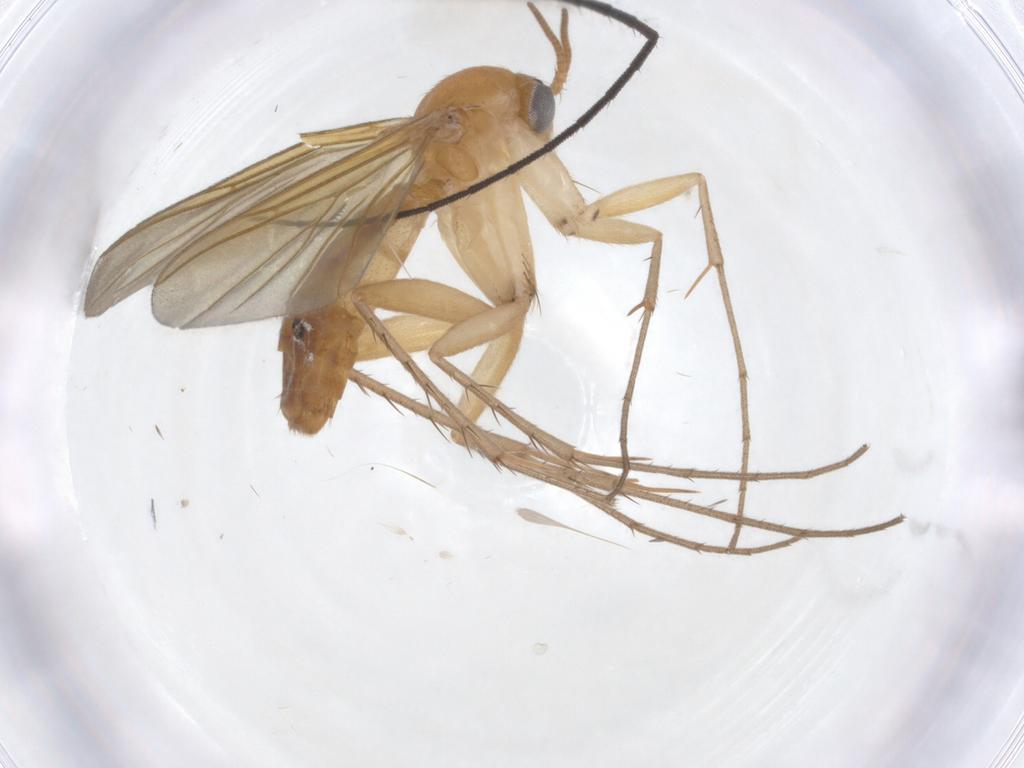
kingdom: Animalia
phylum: Arthropoda
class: Insecta
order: Diptera
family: Mycetophilidae
